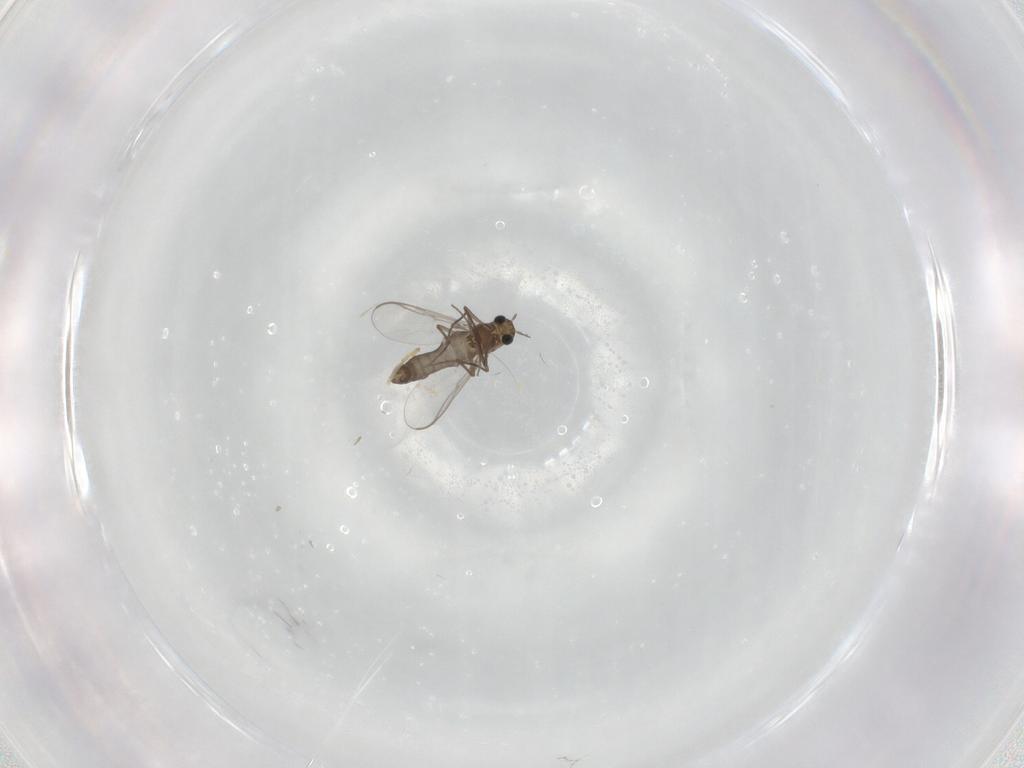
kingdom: Animalia
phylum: Arthropoda
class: Insecta
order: Diptera
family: Chironomidae
